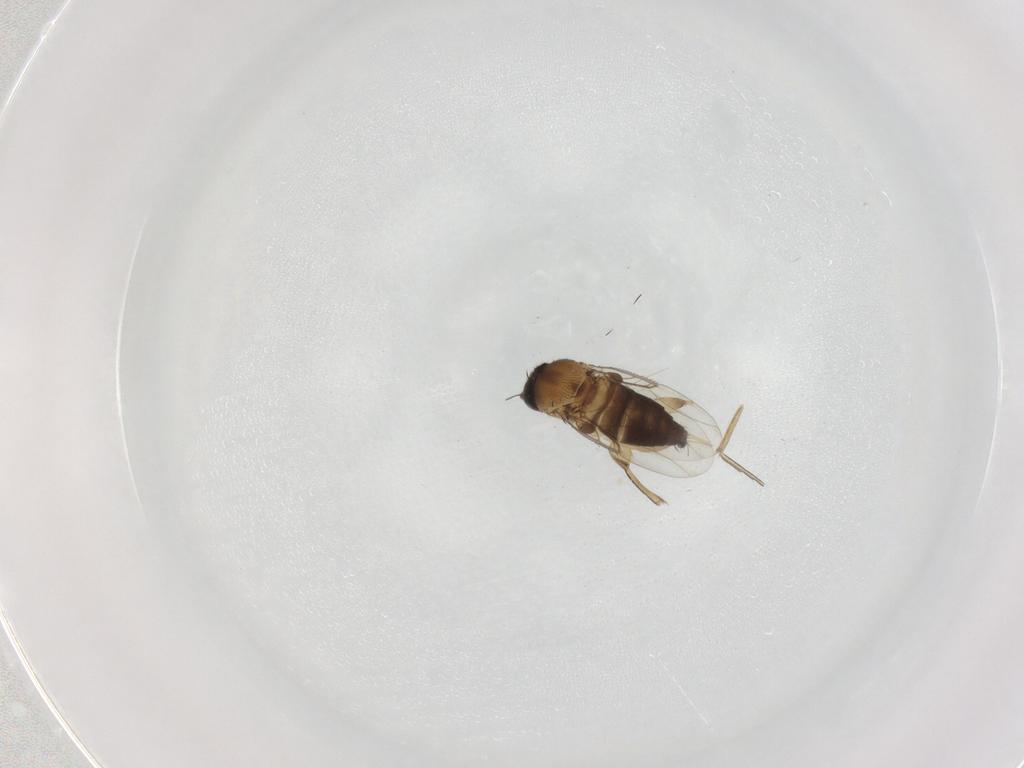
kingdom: Animalia
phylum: Arthropoda
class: Insecta
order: Diptera
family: Phoridae
